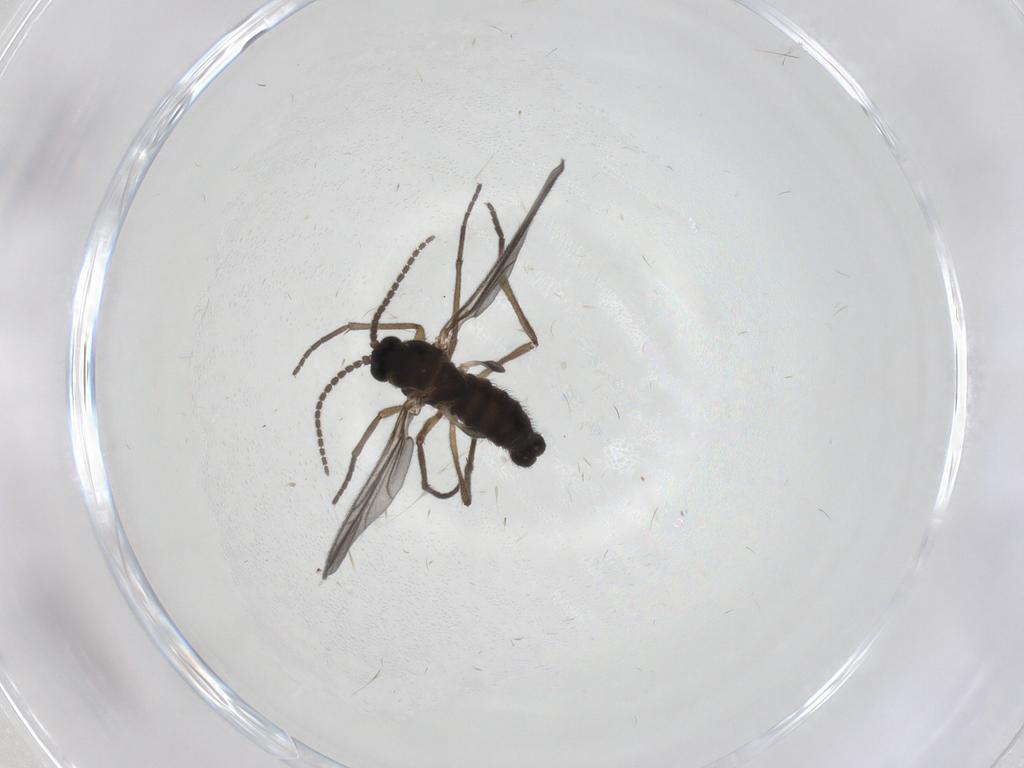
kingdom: Animalia
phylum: Arthropoda
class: Insecta
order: Diptera
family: Sciaridae
